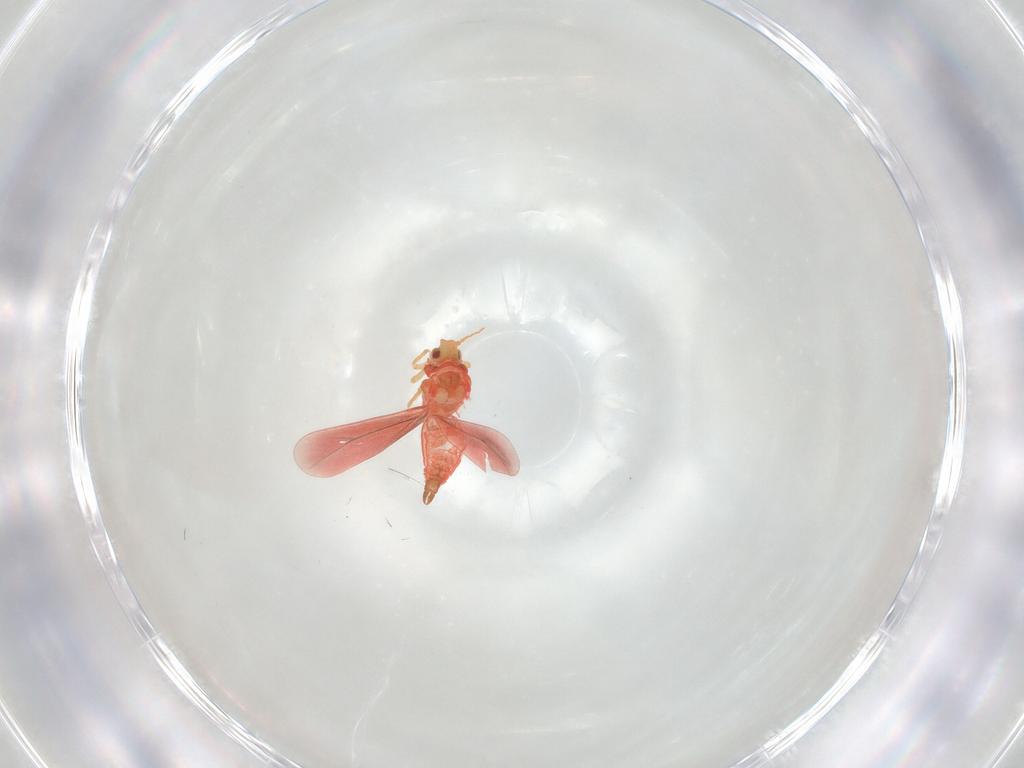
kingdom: Animalia
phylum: Arthropoda
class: Insecta
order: Hemiptera
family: Aleyrodidae
